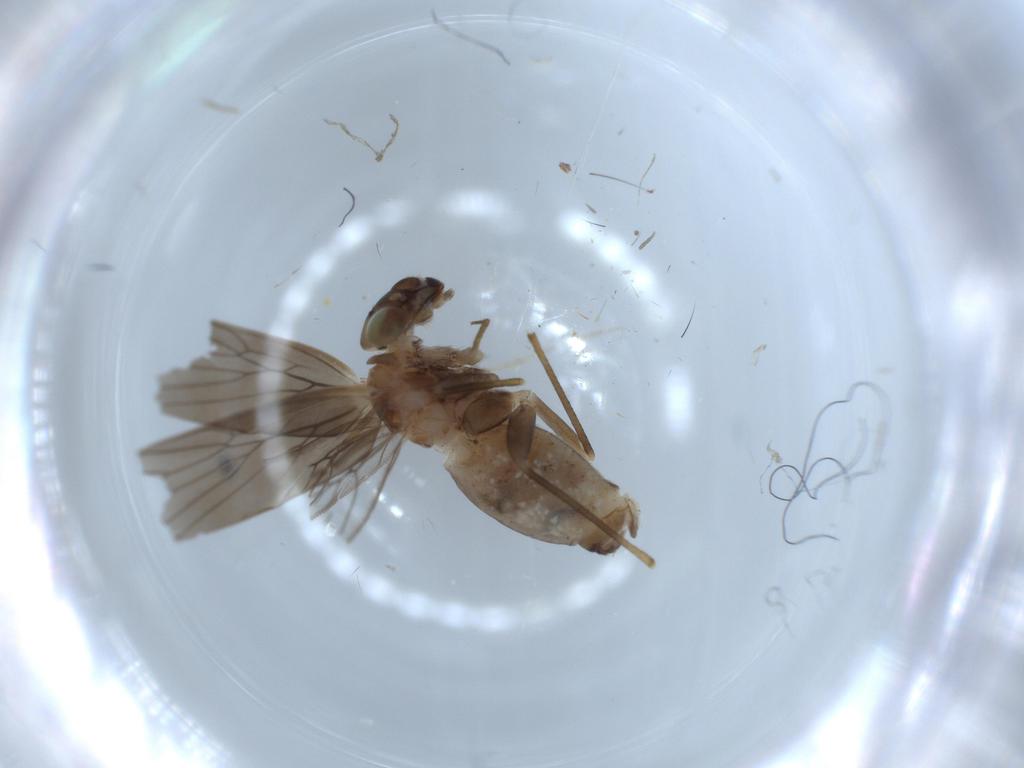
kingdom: Animalia
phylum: Arthropoda
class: Insecta
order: Psocodea
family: Lepidopsocidae
